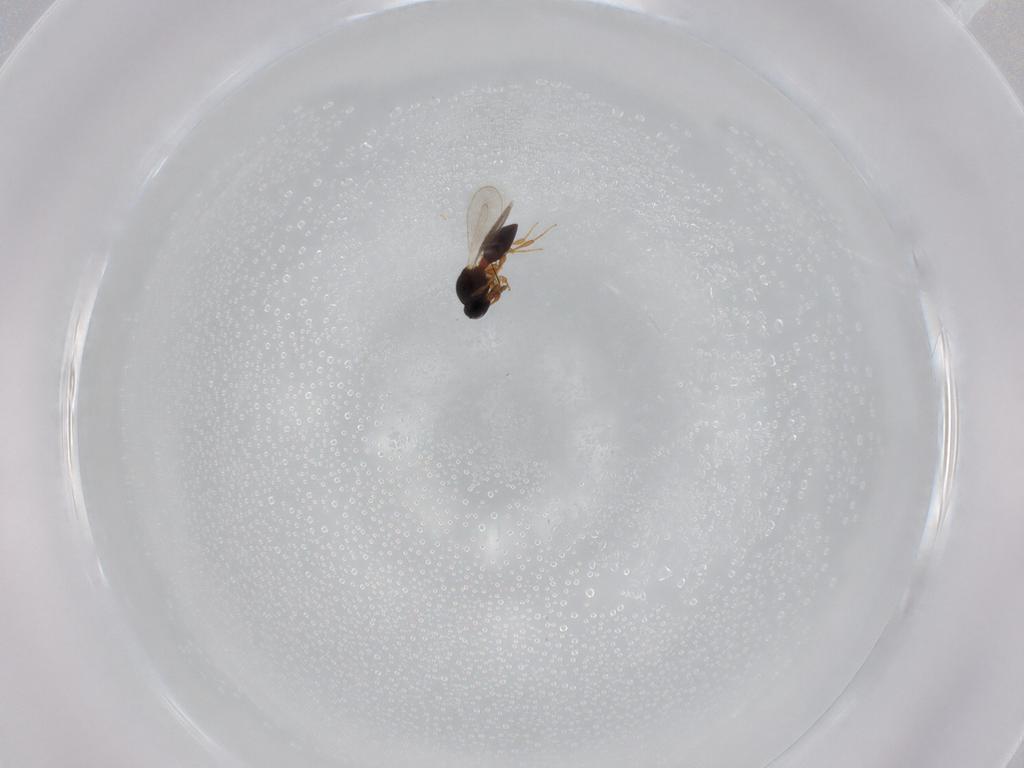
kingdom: Animalia
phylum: Arthropoda
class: Insecta
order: Hymenoptera
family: Platygastridae
